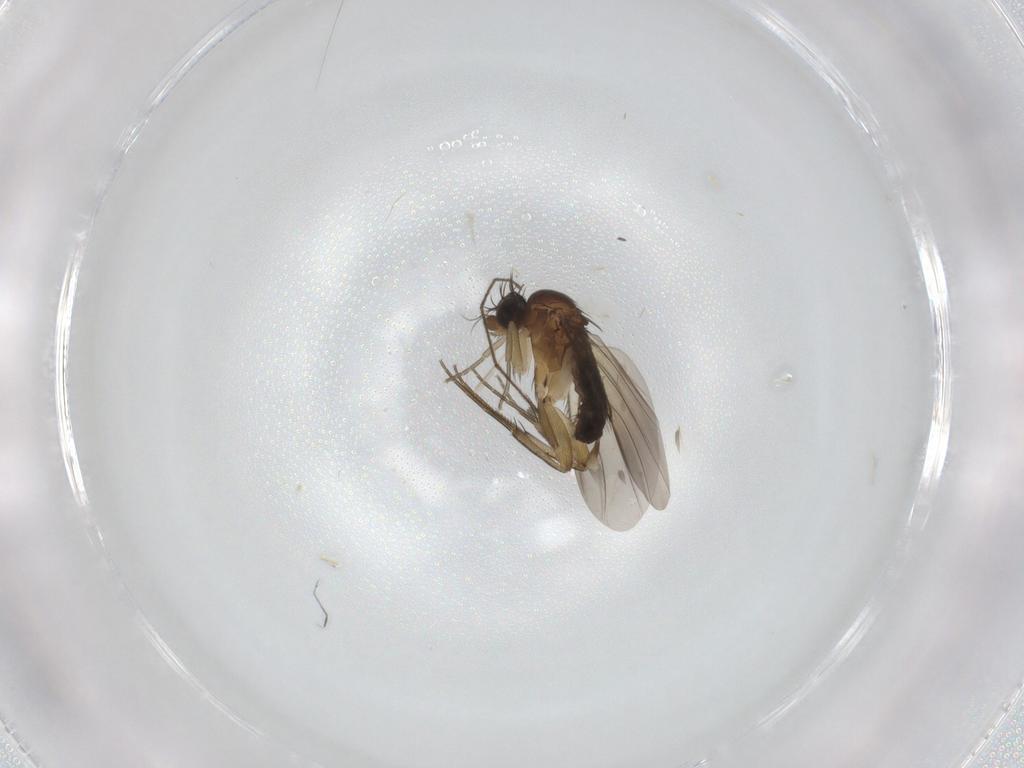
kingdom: Animalia
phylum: Arthropoda
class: Insecta
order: Diptera
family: Phoridae
